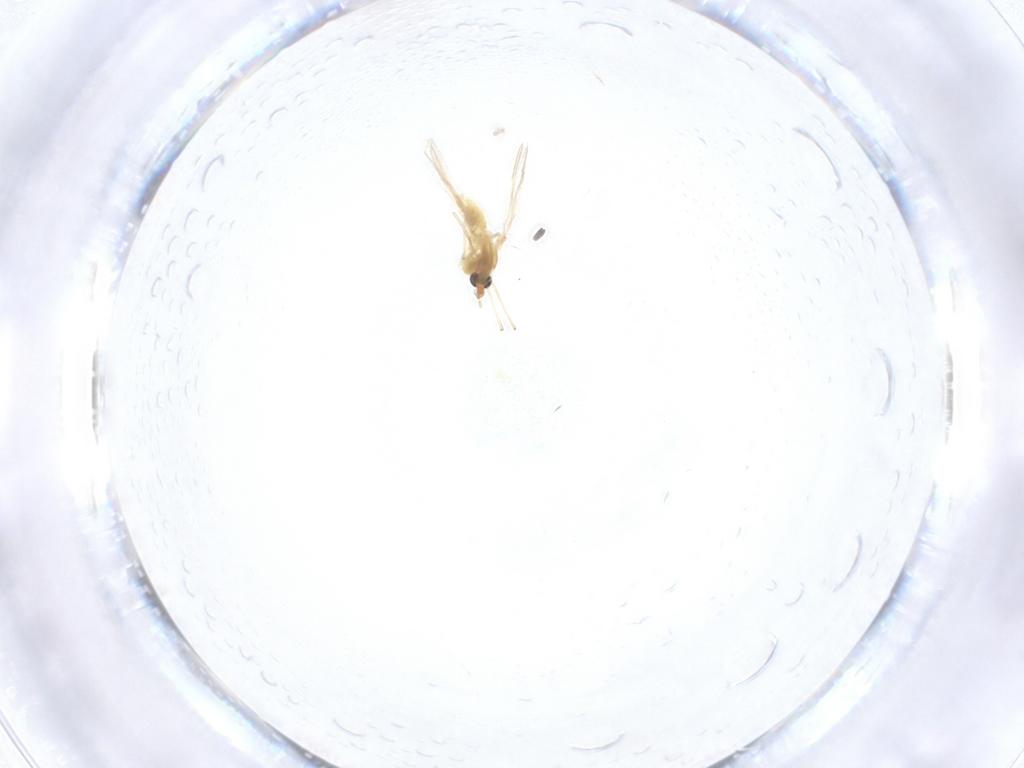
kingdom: Animalia
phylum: Arthropoda
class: Insecta
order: Diptera
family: Chironomidae
